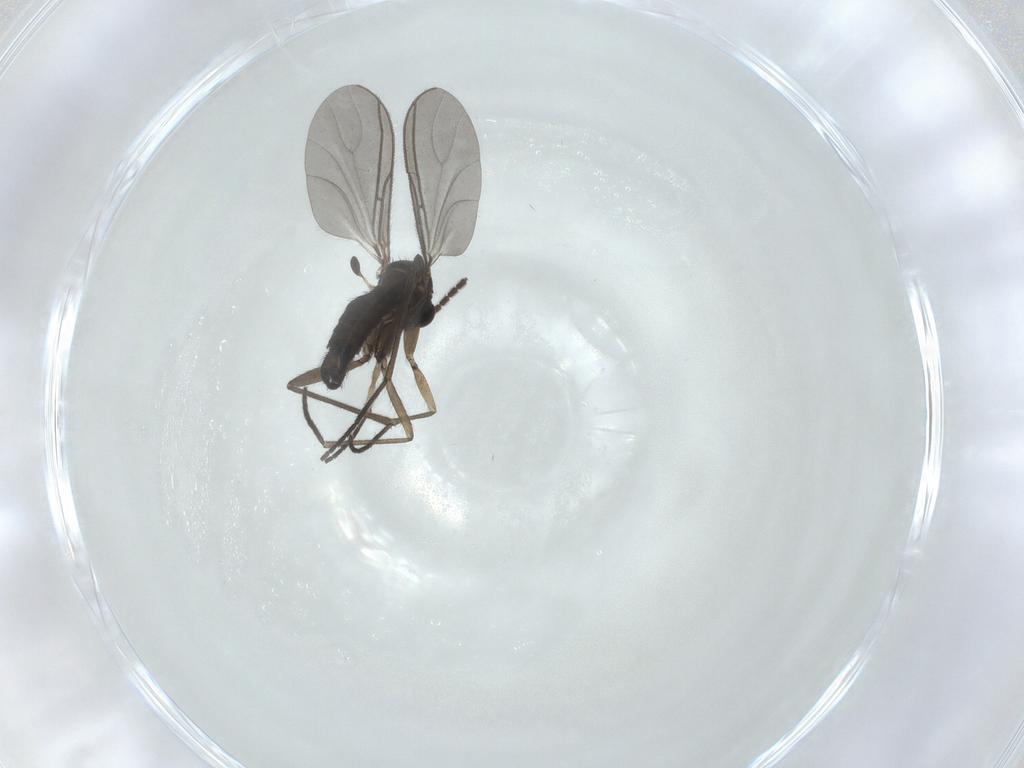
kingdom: Animalia
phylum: Arthropoda
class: Insecta
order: Diptera
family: Sciaridae
